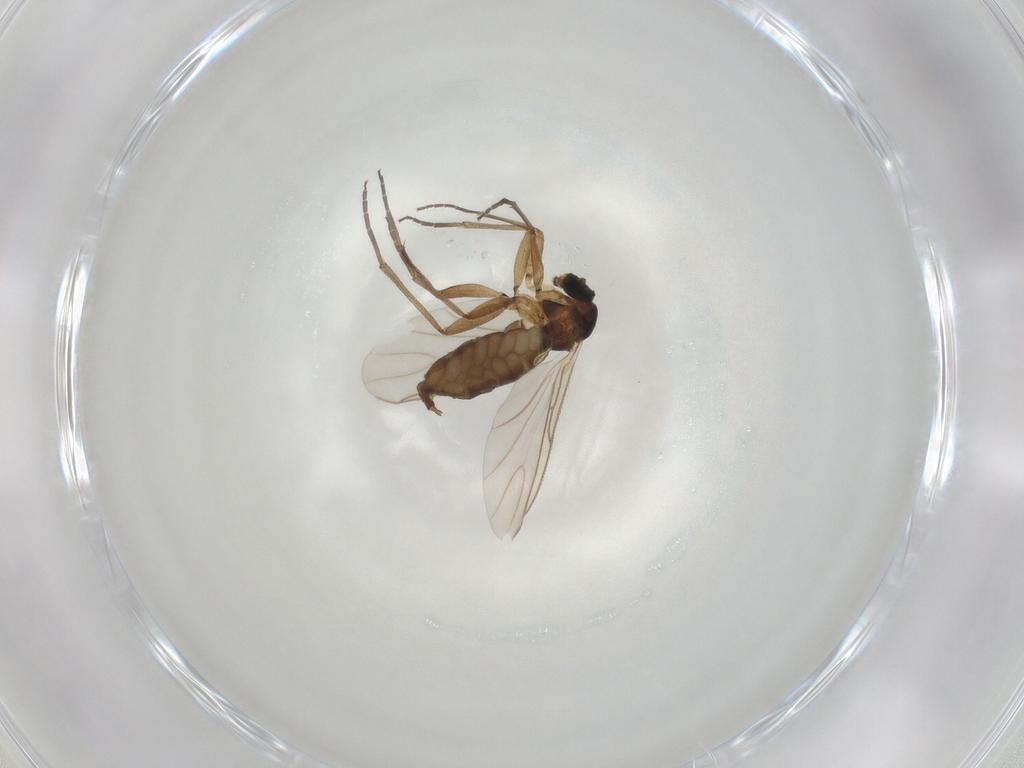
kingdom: Animalia
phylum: Arthropoda
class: Insecta
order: Diptera
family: Chironomidae
